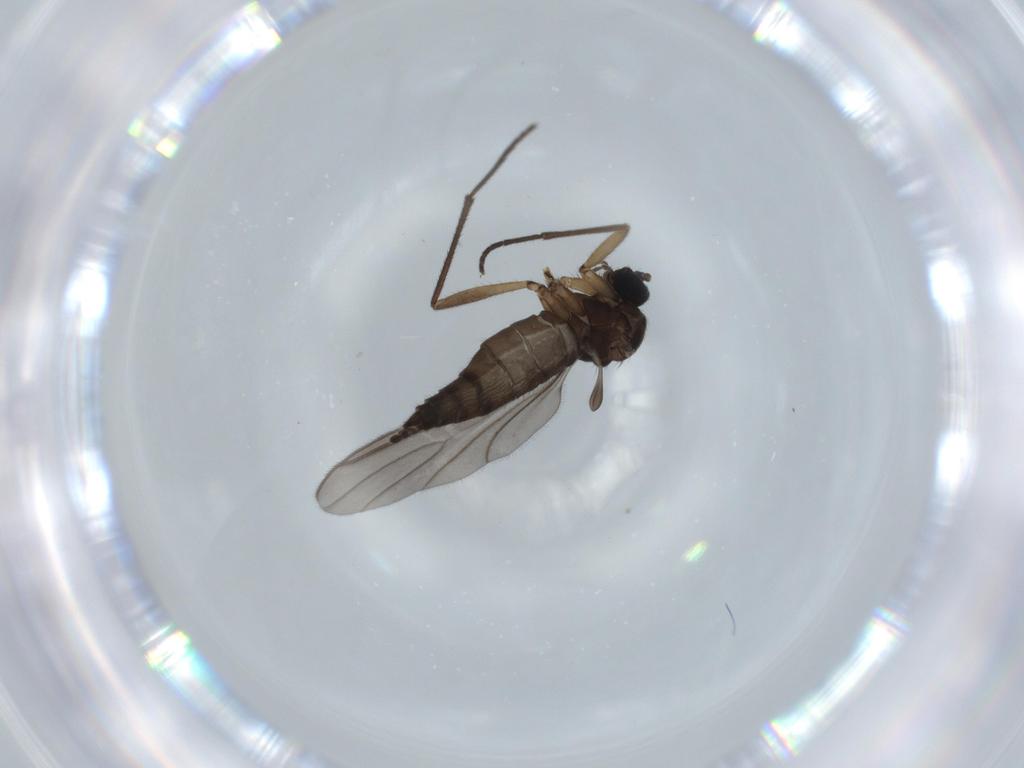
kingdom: Animalia
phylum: Arthropoda
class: Insecta
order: Diptera
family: Sciaridae
